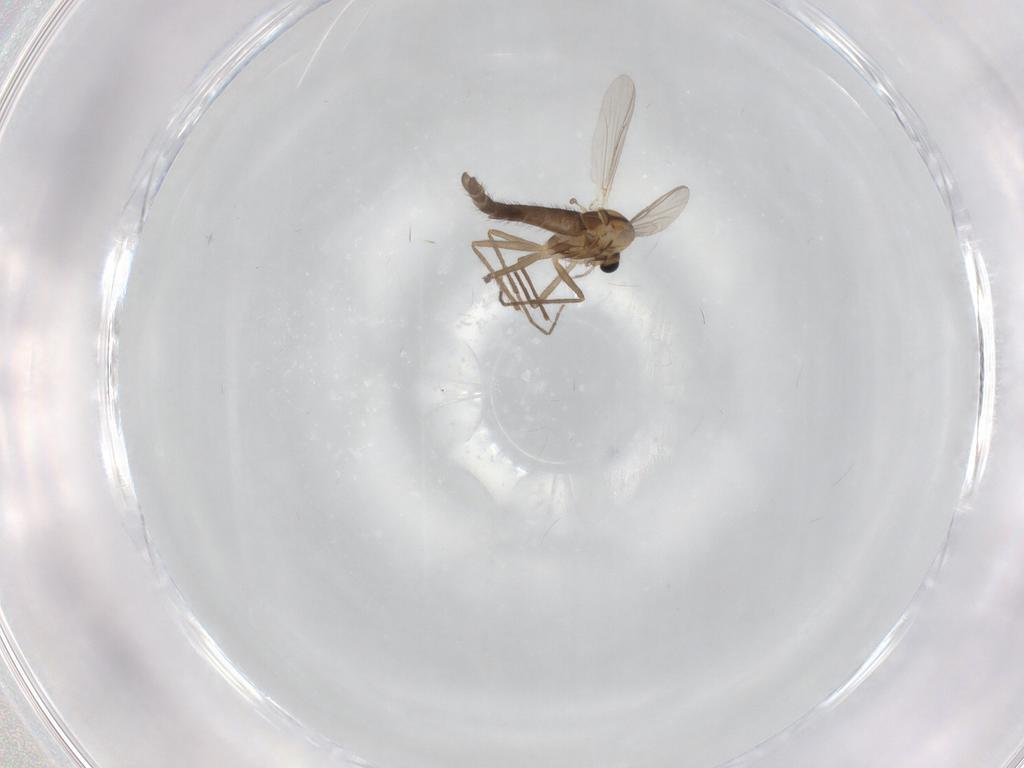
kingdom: Animalia
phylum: Arthropoda
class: Insecta
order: Diptera
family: Chironomidae
